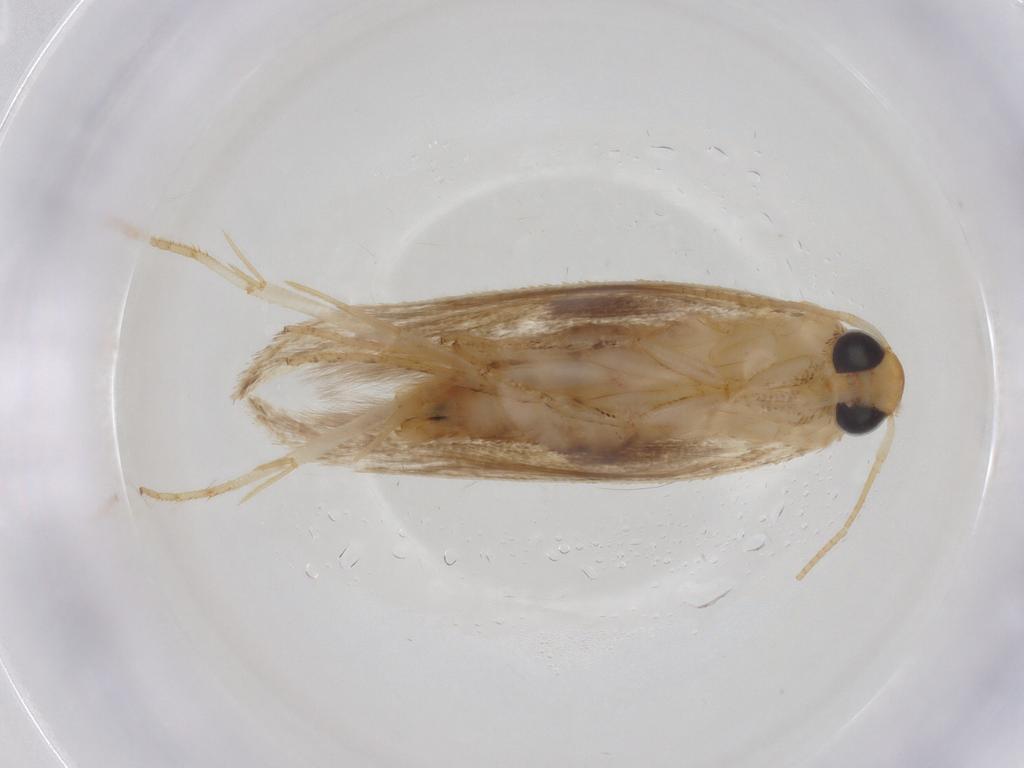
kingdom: Animalia
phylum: Arthropoda
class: Insecta
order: Lepidoptera
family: Momphidae
